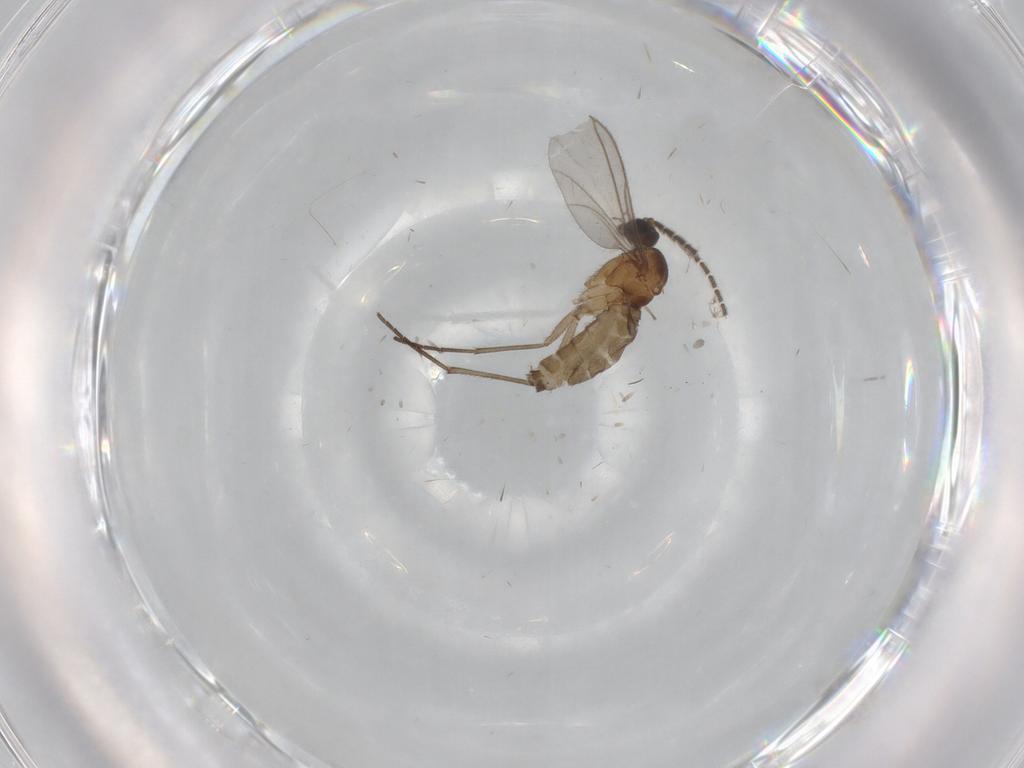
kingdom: Animalia
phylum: Arthropoda
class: Insecta
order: Diptera
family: Sciaridae
